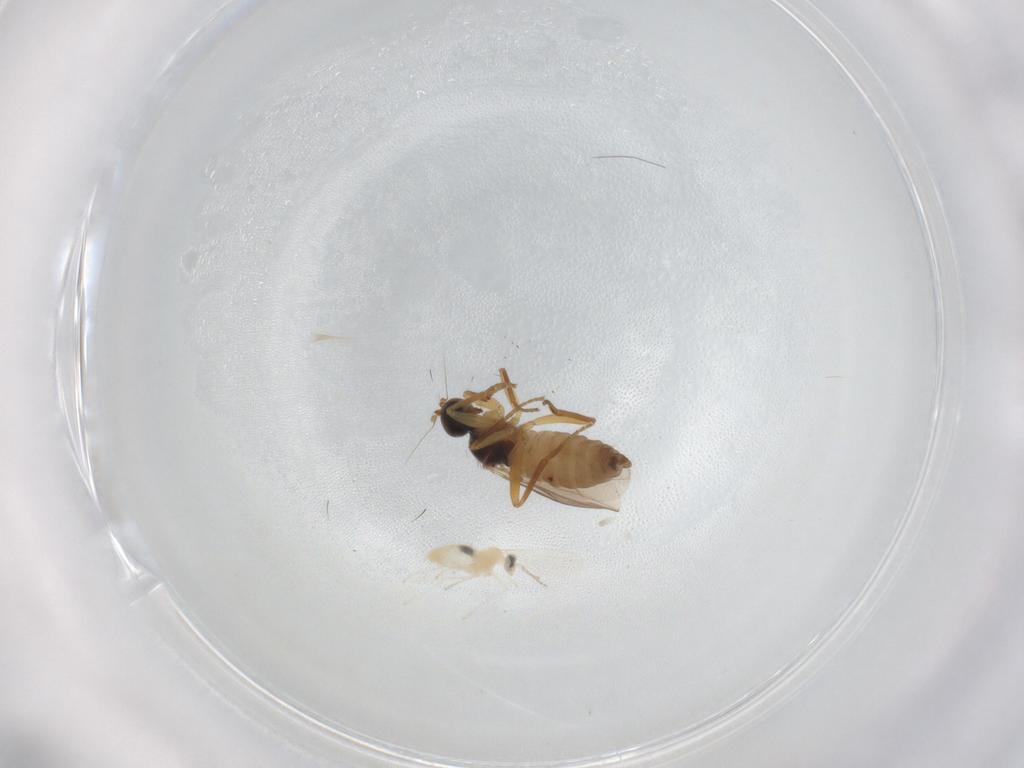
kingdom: Animalia
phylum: Arthropoda
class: Insecta
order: Diptera
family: Hybotidae
